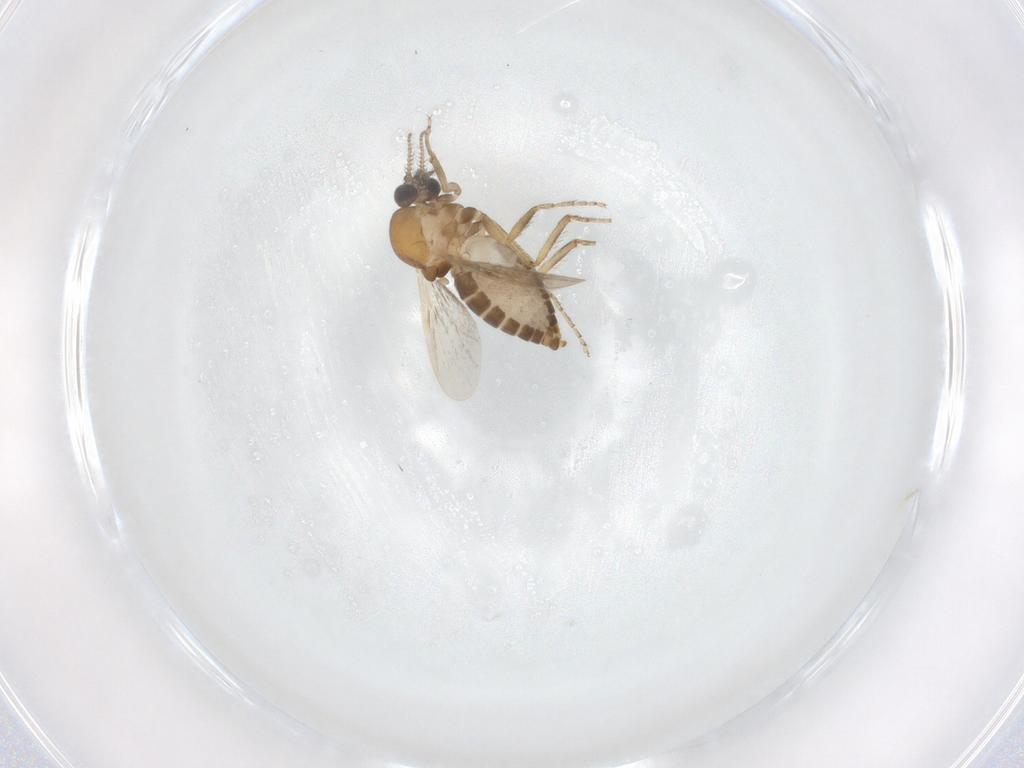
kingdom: Animalia
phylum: Arthropoda
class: Insecta
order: Diptera
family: Ceratopogonidae
